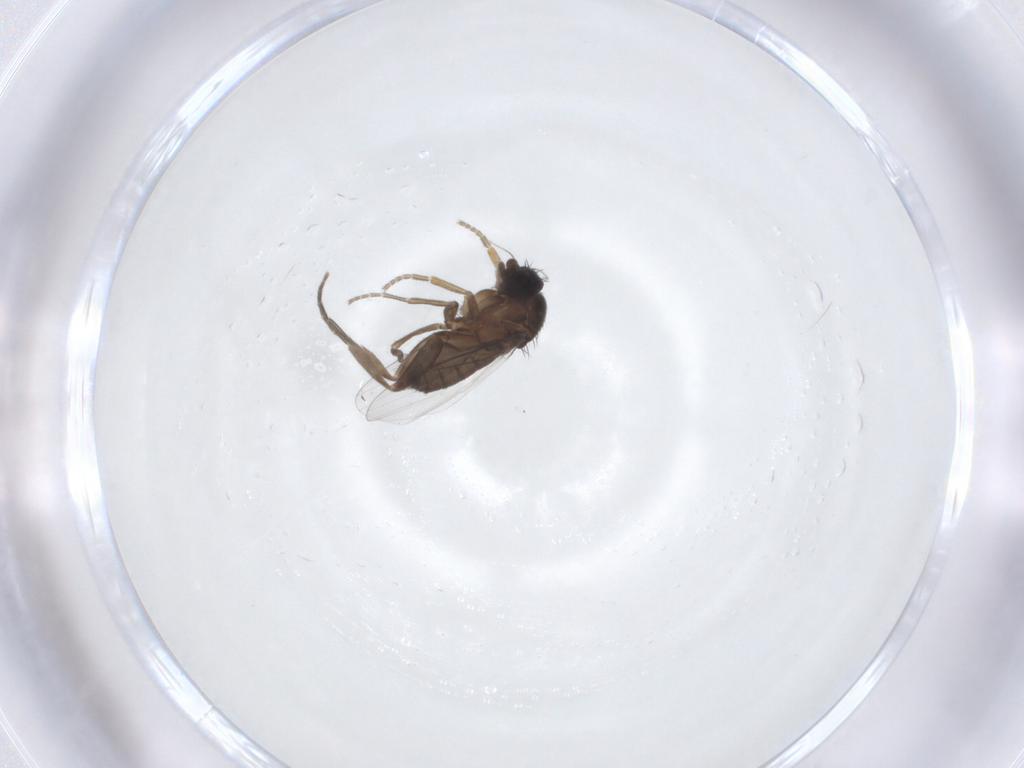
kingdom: Animalia
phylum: Arthropoda
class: Insecta
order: Diptera
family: Phoridae
